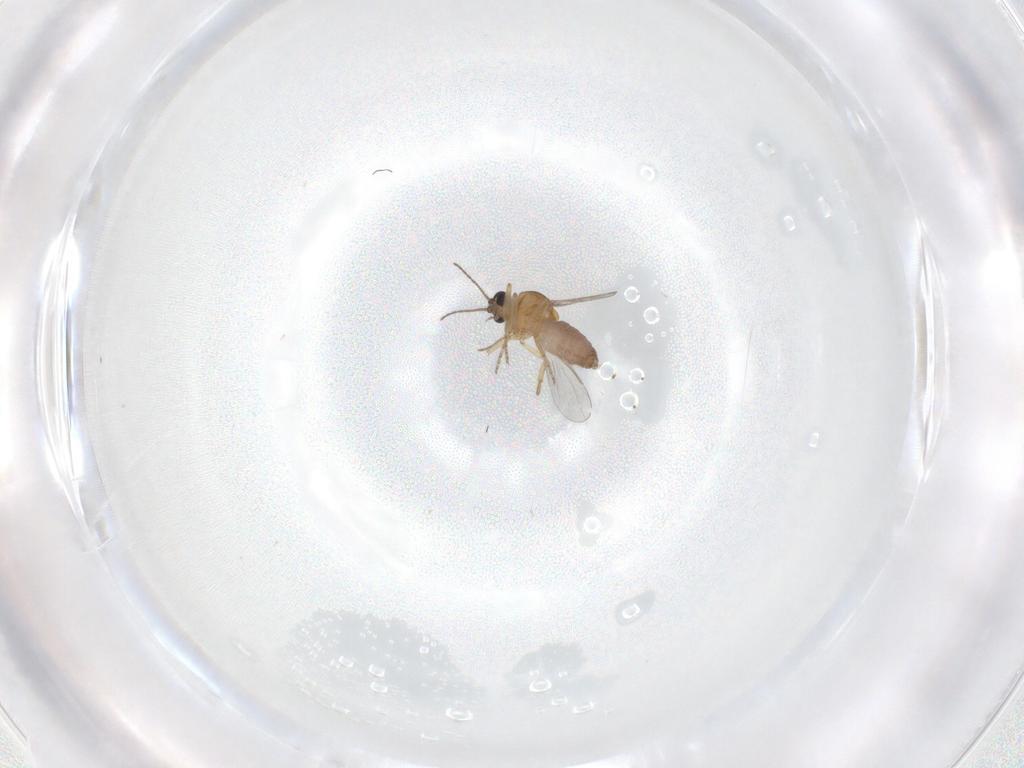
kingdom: Animalia
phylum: Arthropoda
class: Insecta
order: Diptera
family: Ceratopogonidae
